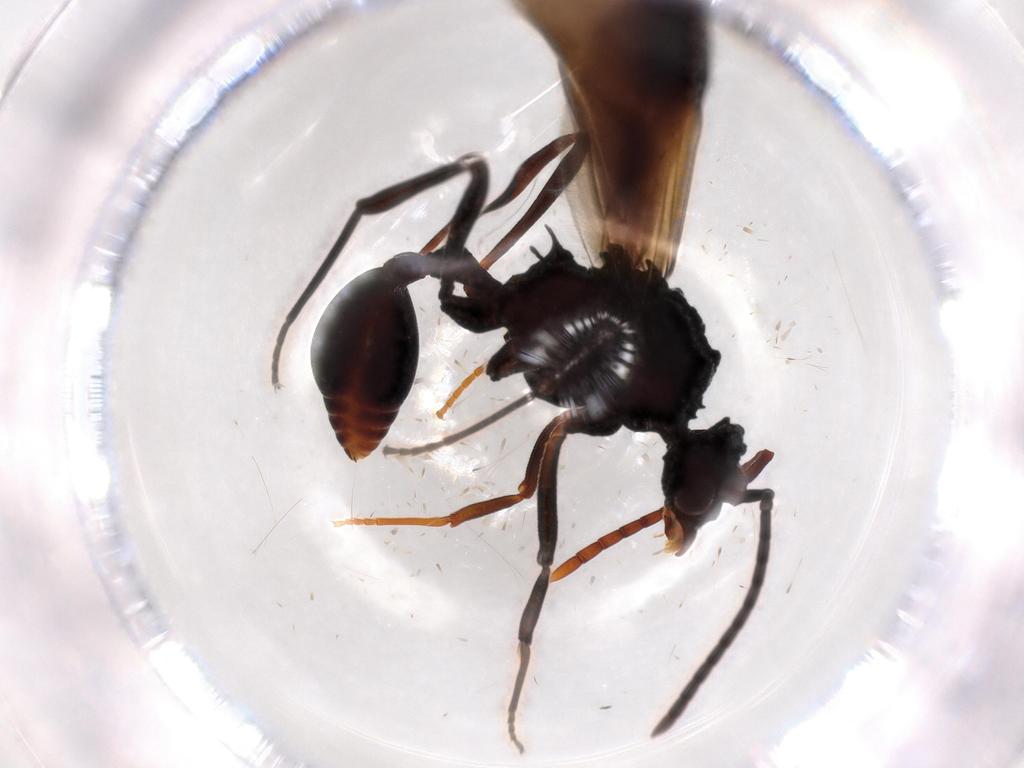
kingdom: Animalia
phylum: Arthropoda
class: Insecta
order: Hymenoptera
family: Formicidae
